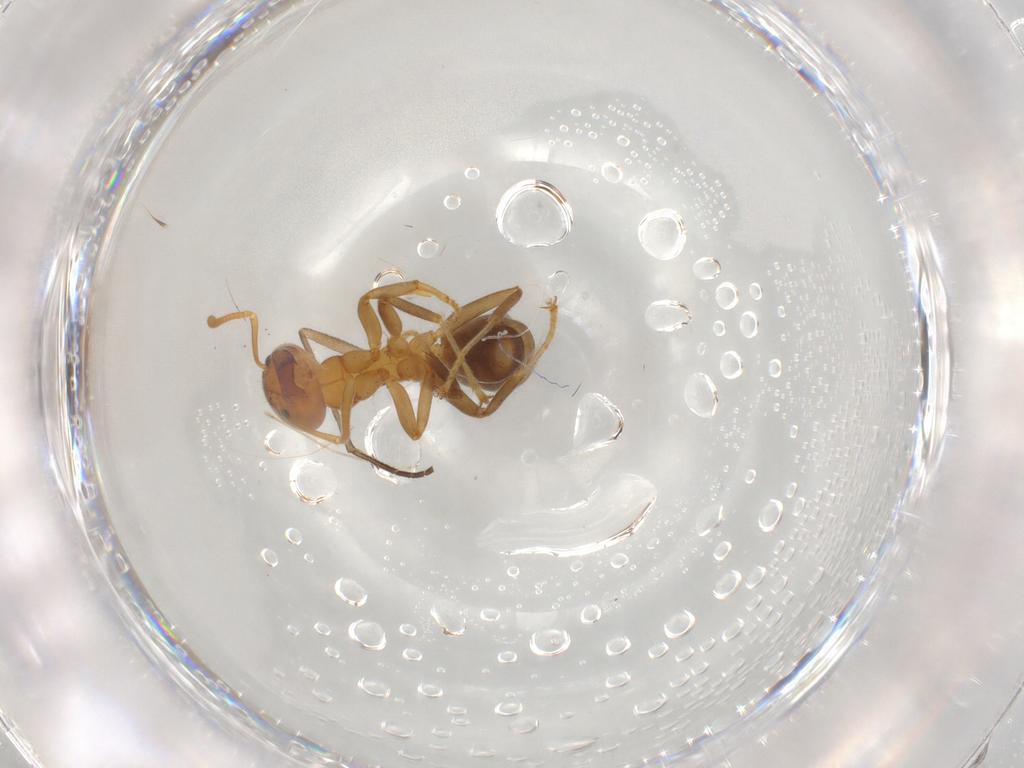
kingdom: Animalia
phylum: Arthropoda
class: Insecta
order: Hymenoptera
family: Formicidae
